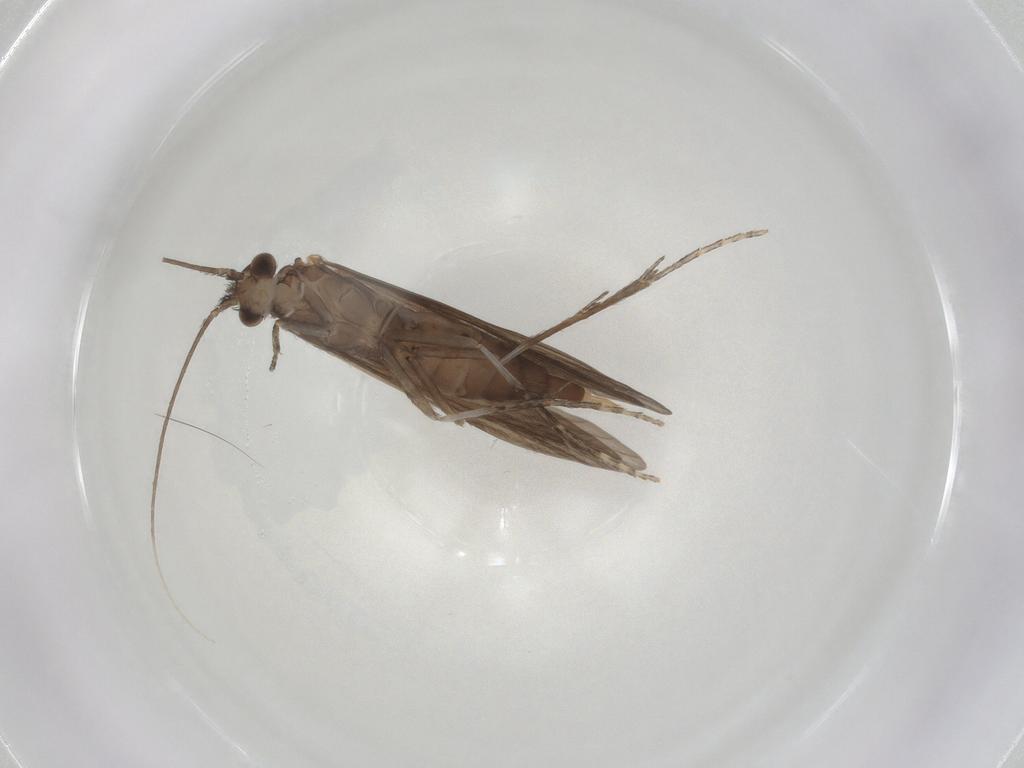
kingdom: Animalia
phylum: Arthropoda
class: Insecta
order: Trichoptera
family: Xiphocentronidae
